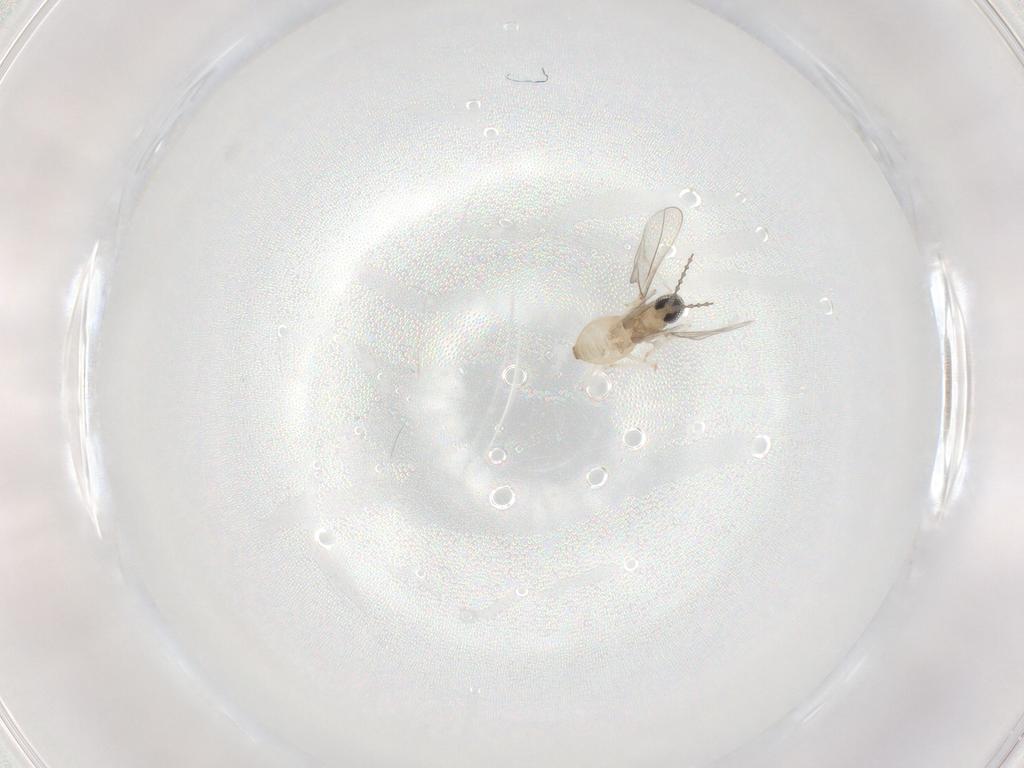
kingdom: Animalia
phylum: Arthropoda
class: Insecta
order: Diptera
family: Cecidomyiidae
